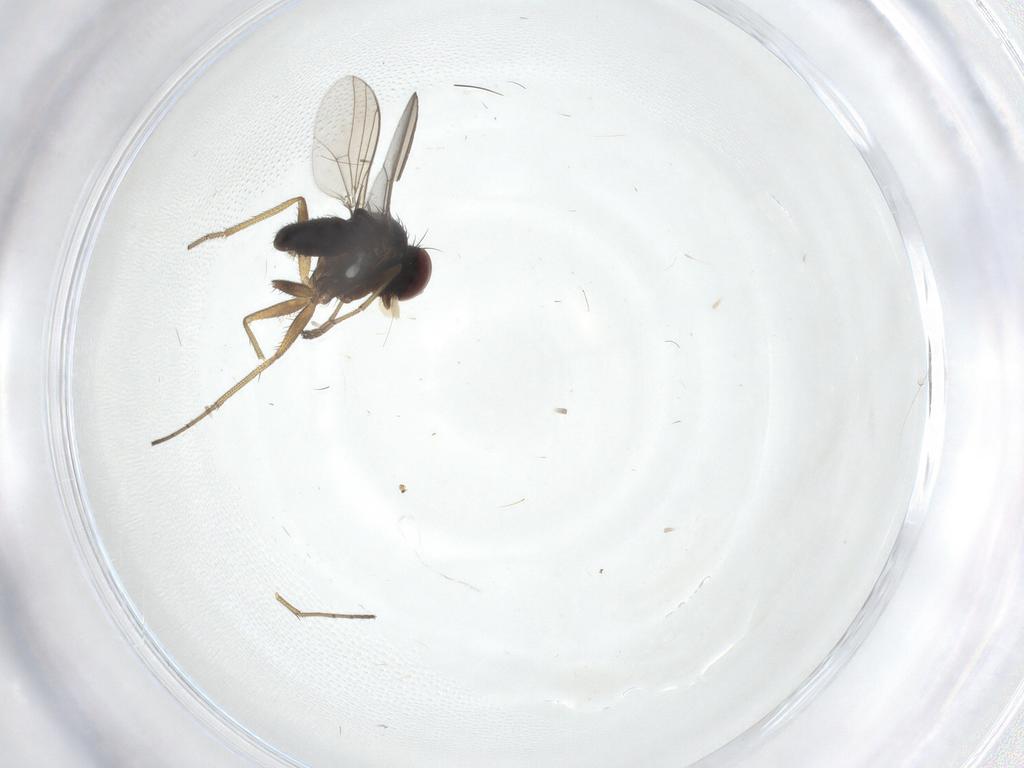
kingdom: Animalia
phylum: Arthropoda
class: Insecta
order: Diptera
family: Dolichopodidae
